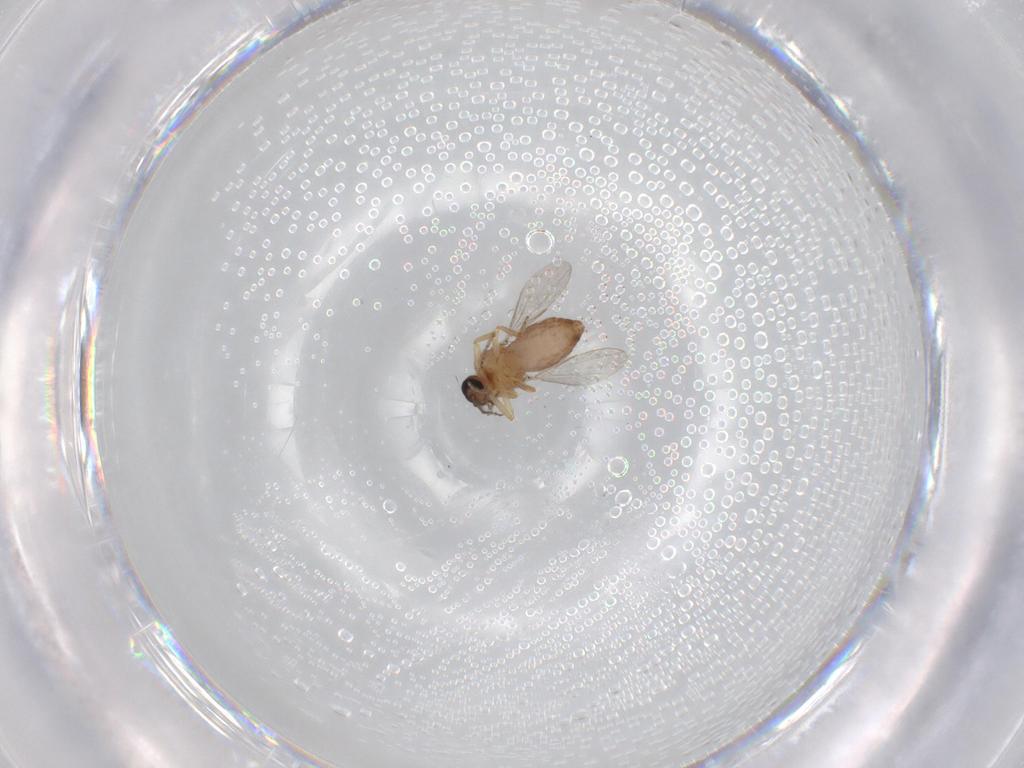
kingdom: Animalia
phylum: Arthropoda
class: Insecta
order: Diptera
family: Ceratopogonidae
